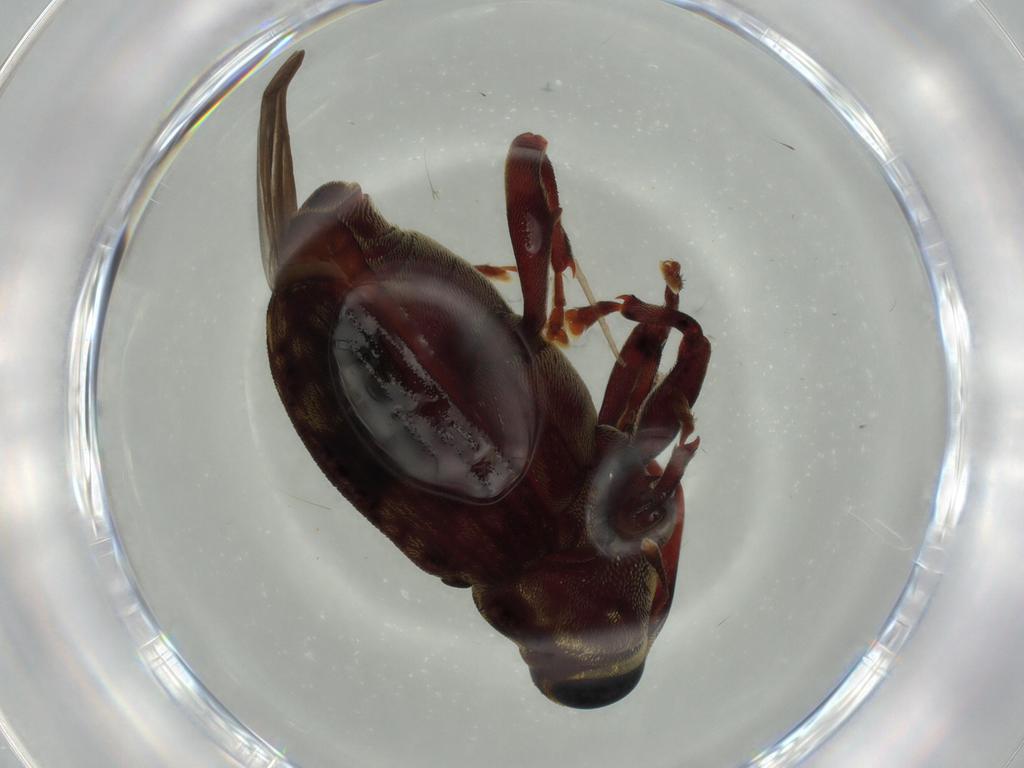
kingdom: Animalia
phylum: Arthropoda
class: Insecta
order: Coleoptera
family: Curculionidae
